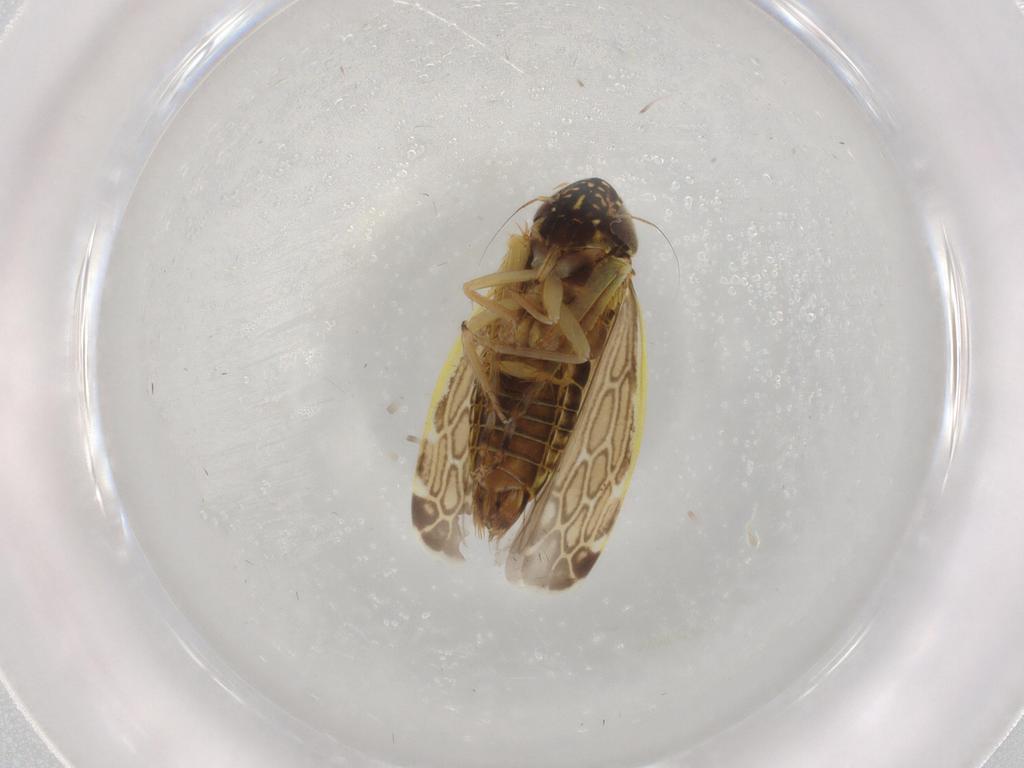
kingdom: Animalia
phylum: Arthropoda
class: Insecta
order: Hemiptera
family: Cicadellidae
